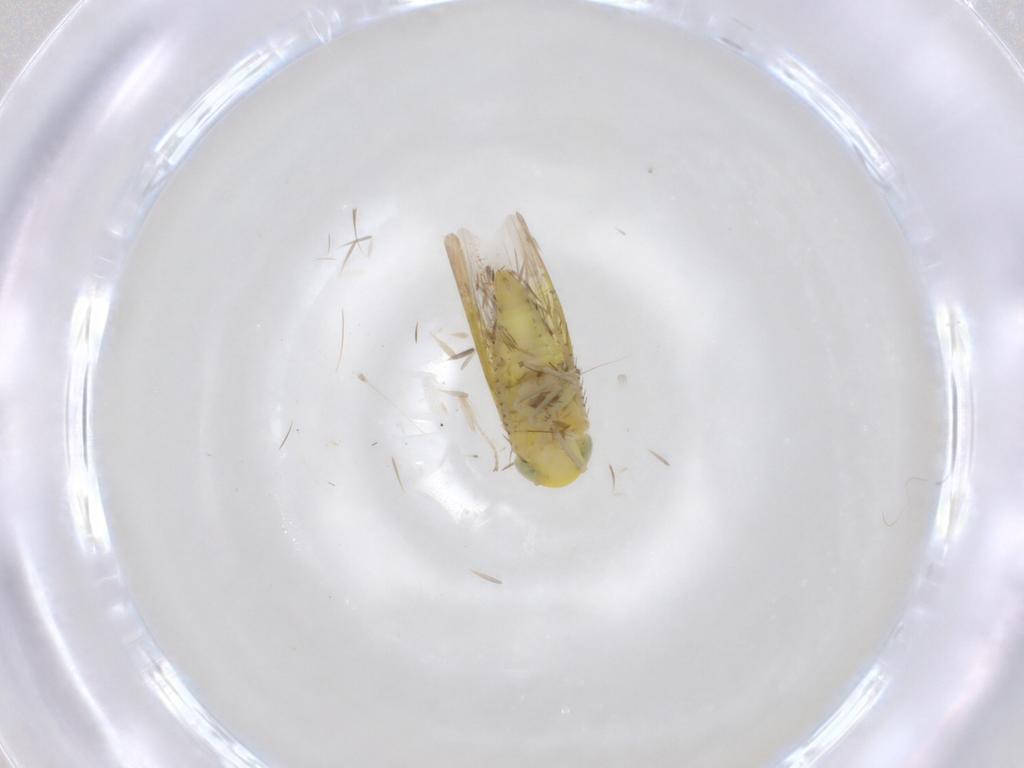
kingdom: Animalia
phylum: Arthropoda
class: Insecta
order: Hemiptera
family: Cicadellidae
